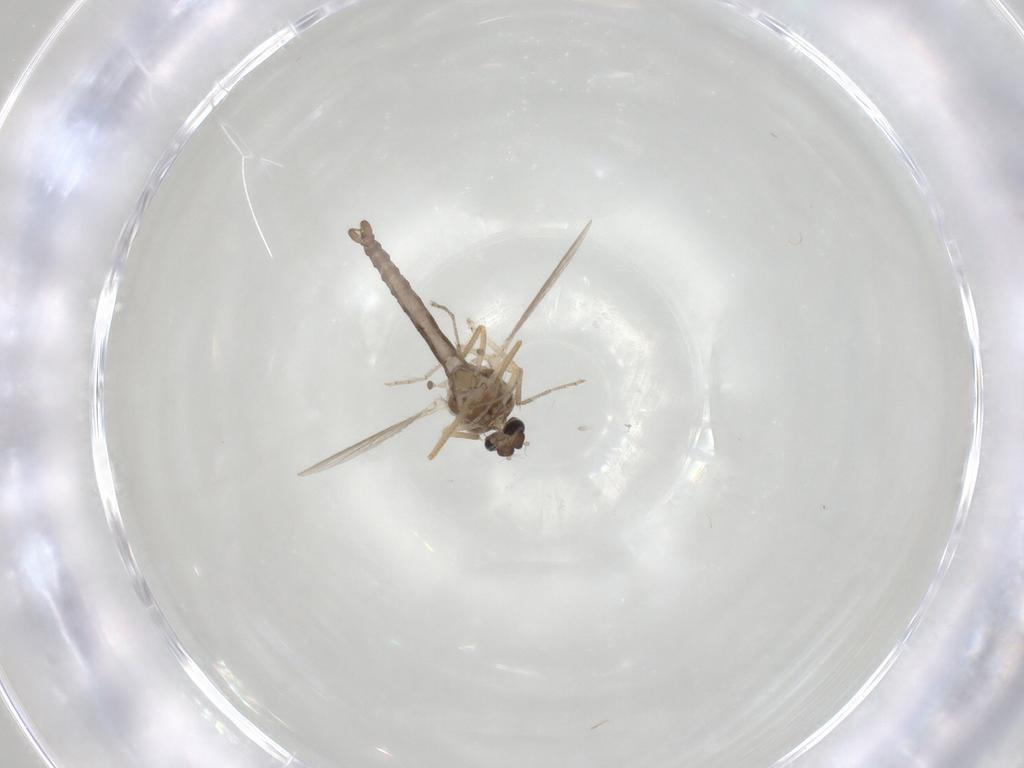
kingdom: Animalia
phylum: Arthropoda
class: Insecta
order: Diptera
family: Ceratopogonidae
